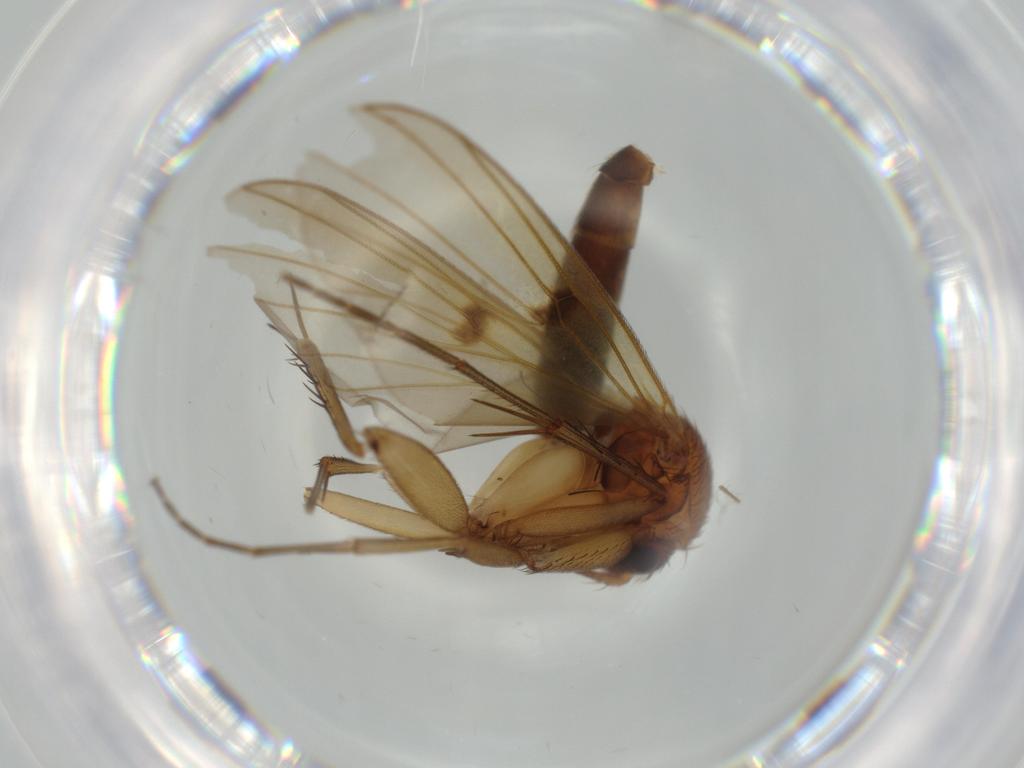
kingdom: Animalia
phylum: Arthropoda
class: Insecta
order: Diptera
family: Mycetophilidae
